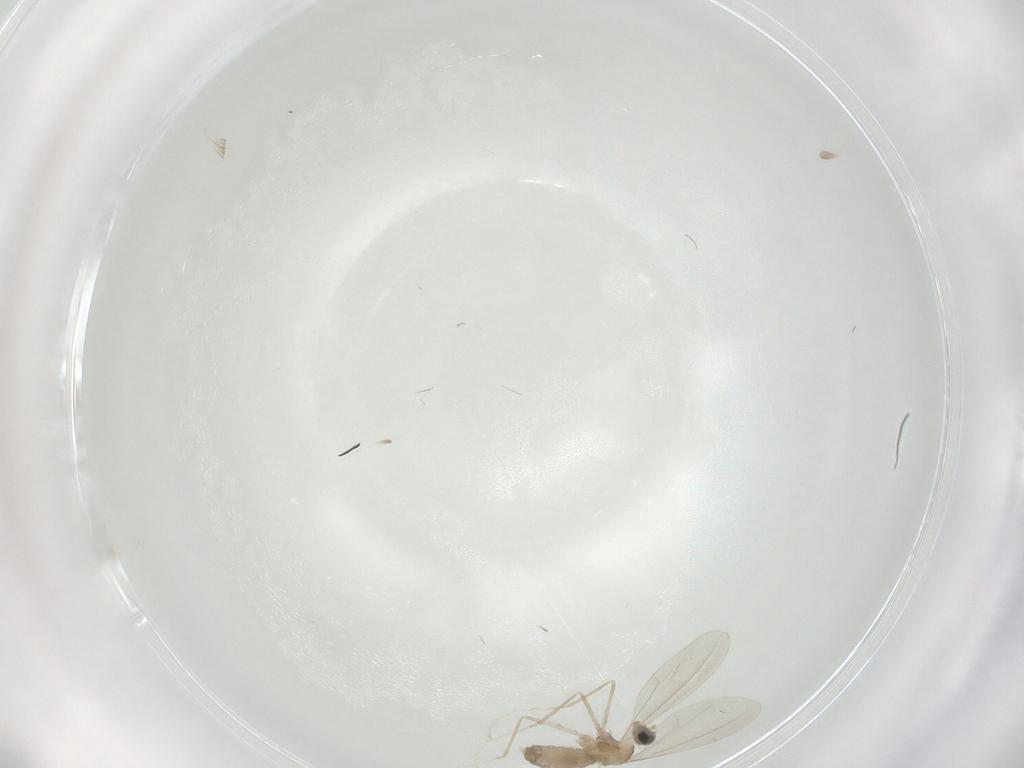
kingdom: Animalia
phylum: Arthropoda
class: Insecta
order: Diptera
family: Cecidomyiidae
